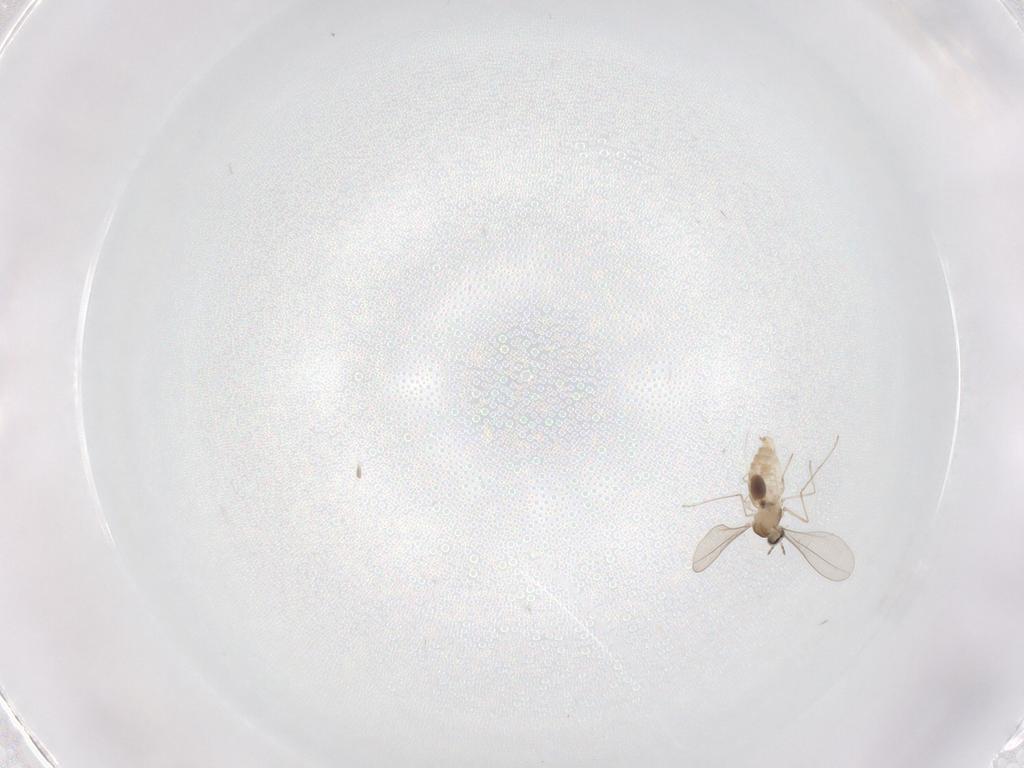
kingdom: Animalia
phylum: Arthropoda
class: Insecta
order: Diptera
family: Cecidomyiidae
